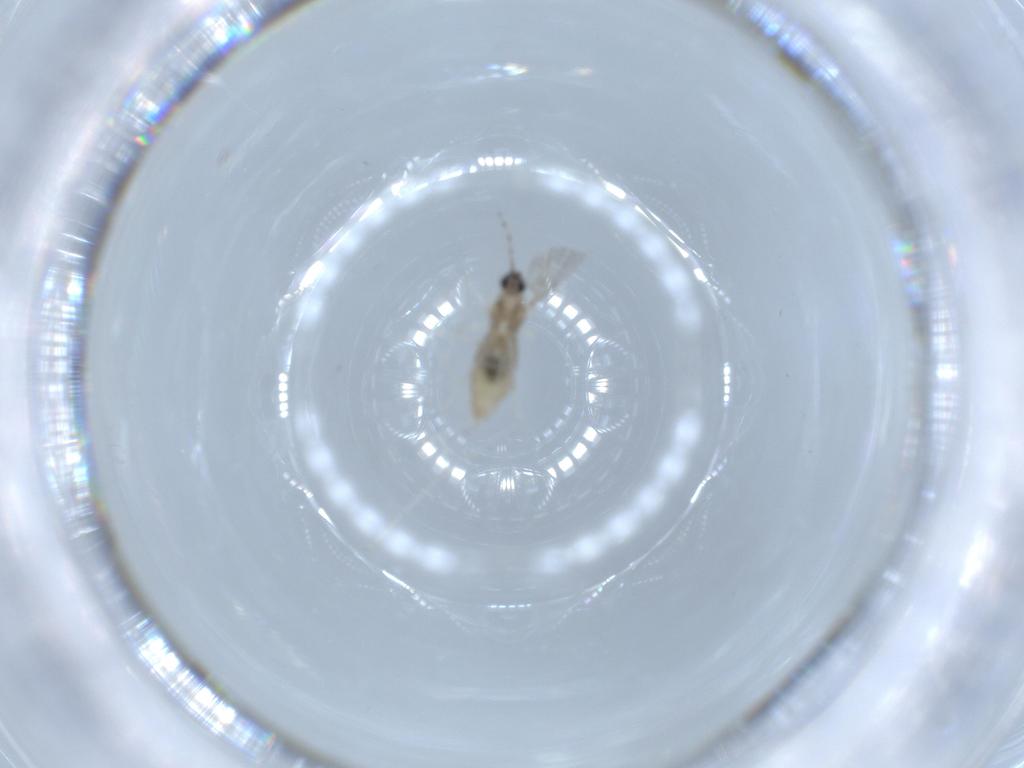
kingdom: Animalia
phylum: Arthropoda
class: Insecta
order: Diptera
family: Cecidomyiidae
